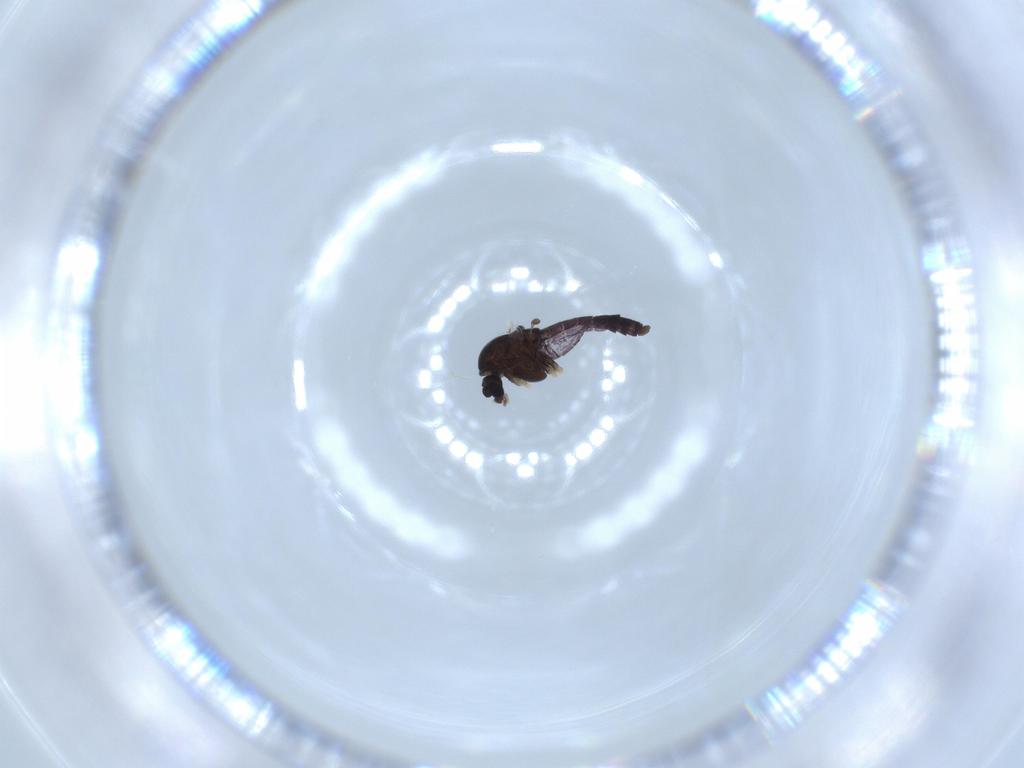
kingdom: Animalia
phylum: Arthropoda
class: Insecta
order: Diptera
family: Chironomidae
